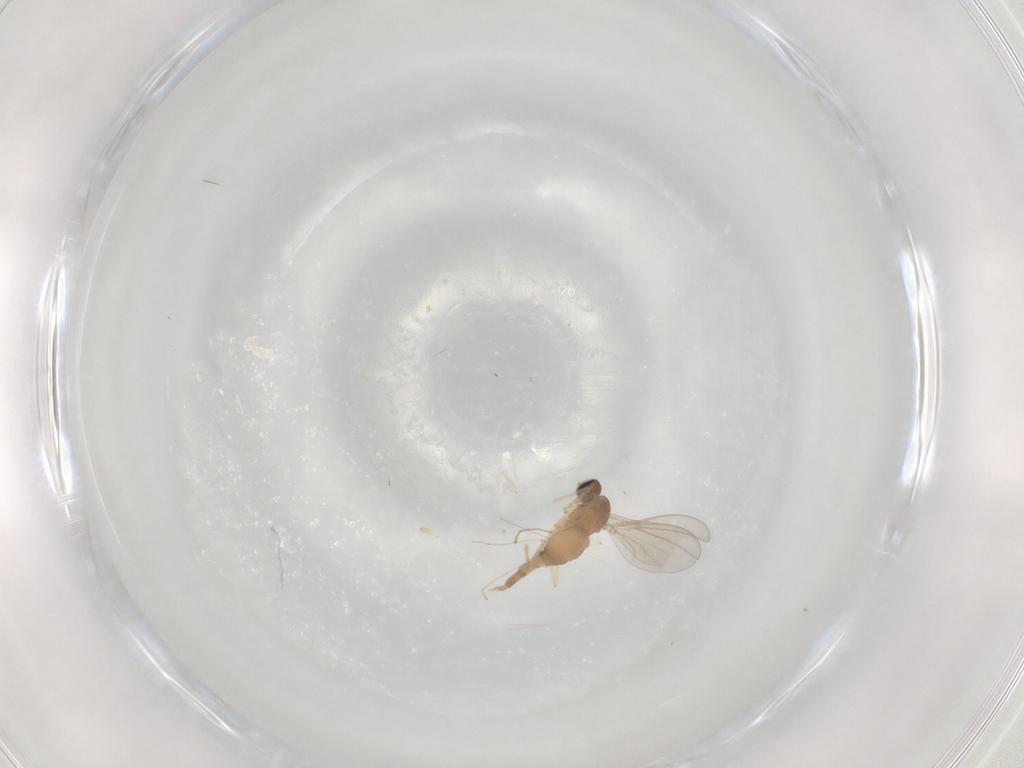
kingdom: Animalia
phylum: Arthropoda
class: Insecta
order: Diptera
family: Cecidomyiidae
